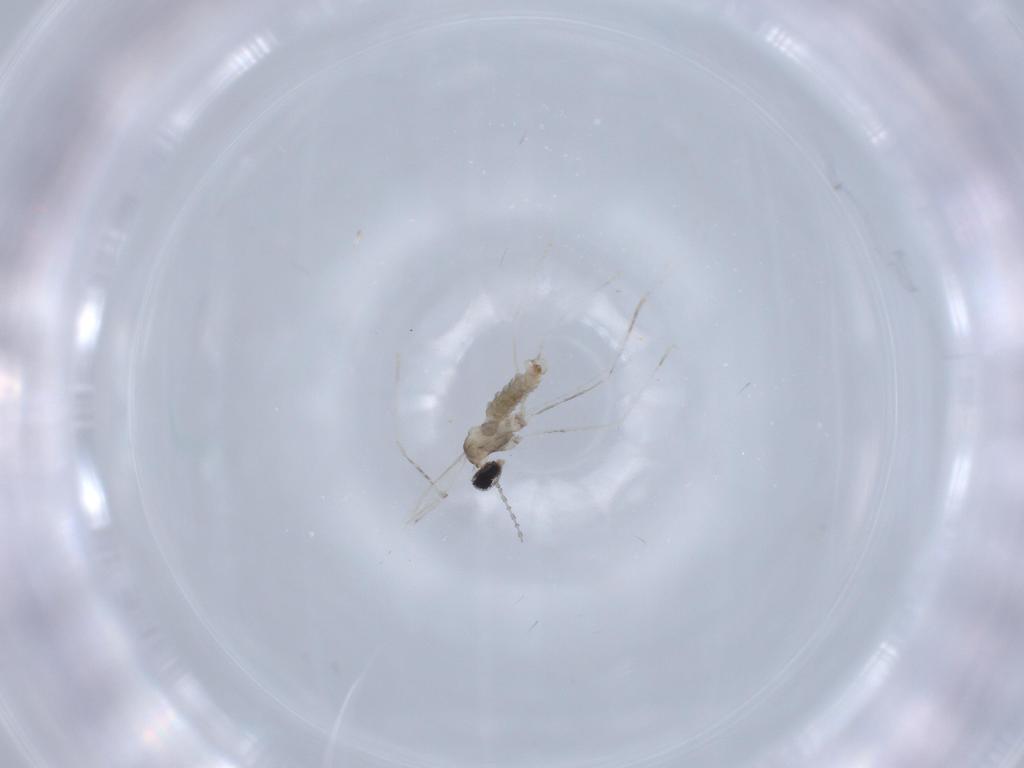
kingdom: Animalia
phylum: Arthropoda
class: Insecta
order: Diptera
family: Cecidomyiidae
